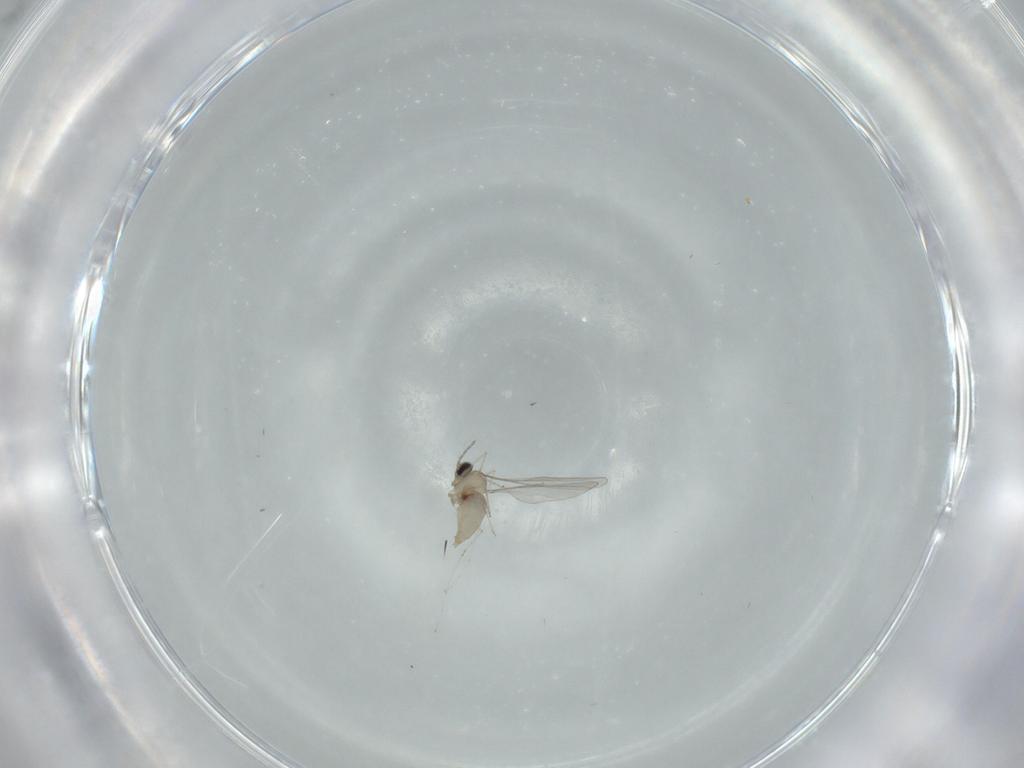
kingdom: Animalia
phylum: Arthropoda
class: Insecta
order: Diptera
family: Cecidomyiidae
